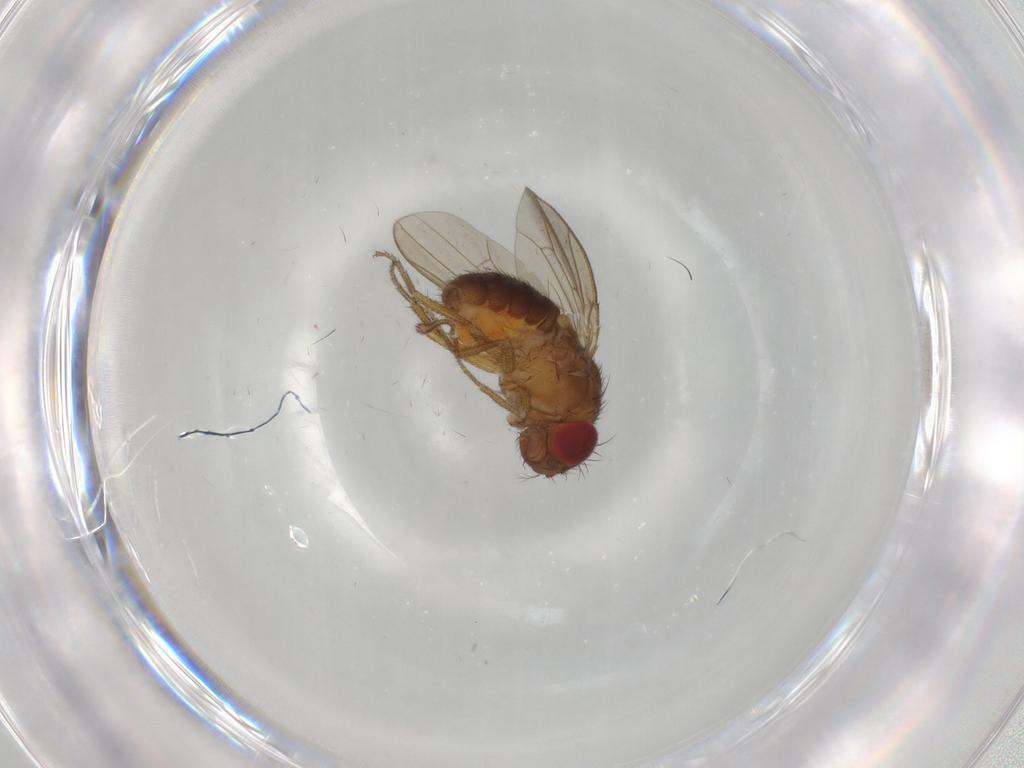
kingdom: Animalia
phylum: Arthropoda
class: Insecta
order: Diptera
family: Drosophilidae
